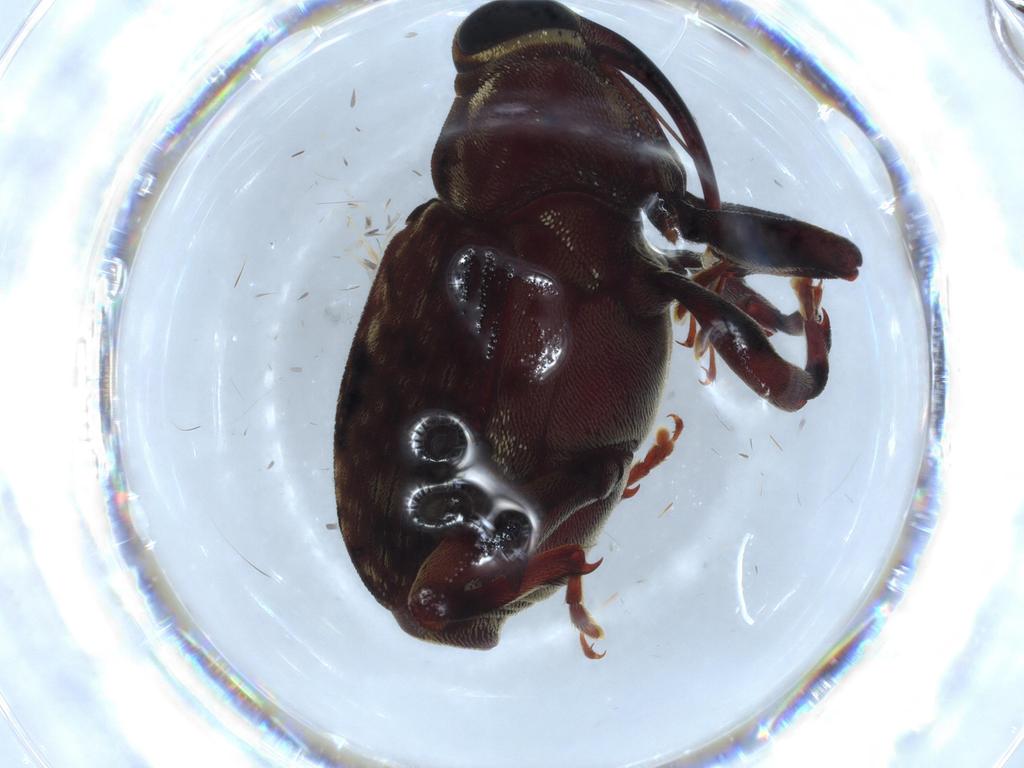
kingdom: Animalia
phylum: Arthropoda
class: Insecta
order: Coleoptera
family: Curculionidae
